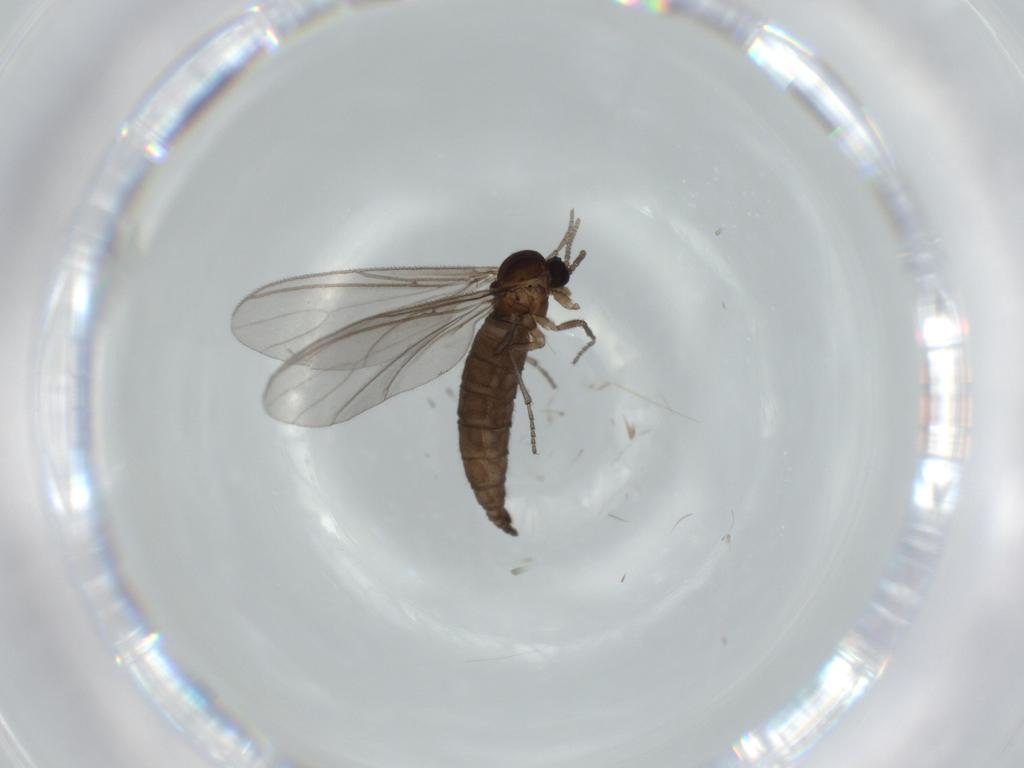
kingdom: Animalia
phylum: Arthropoda
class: Insecta
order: Diptera
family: Sciaridae
